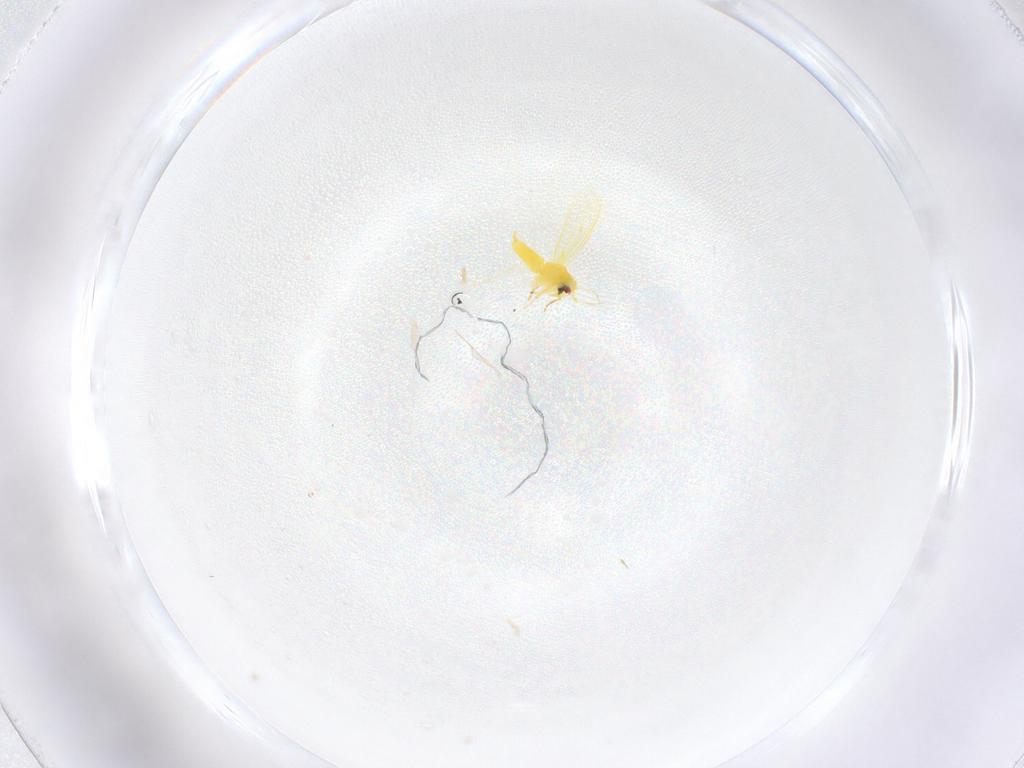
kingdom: Animalia
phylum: Arthropoda
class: Insecta
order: Hemiptera
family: Aleyrodidae
